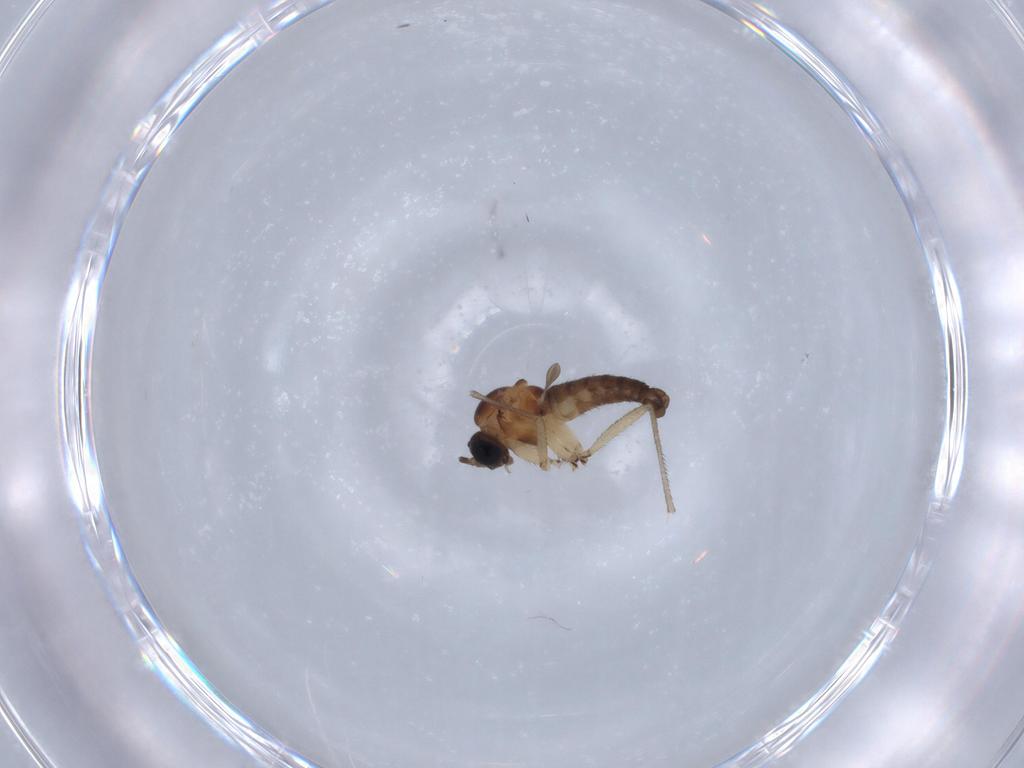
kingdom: Animalia
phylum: Arthropoda
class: Insecta
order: Diptera
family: Sciaridae
